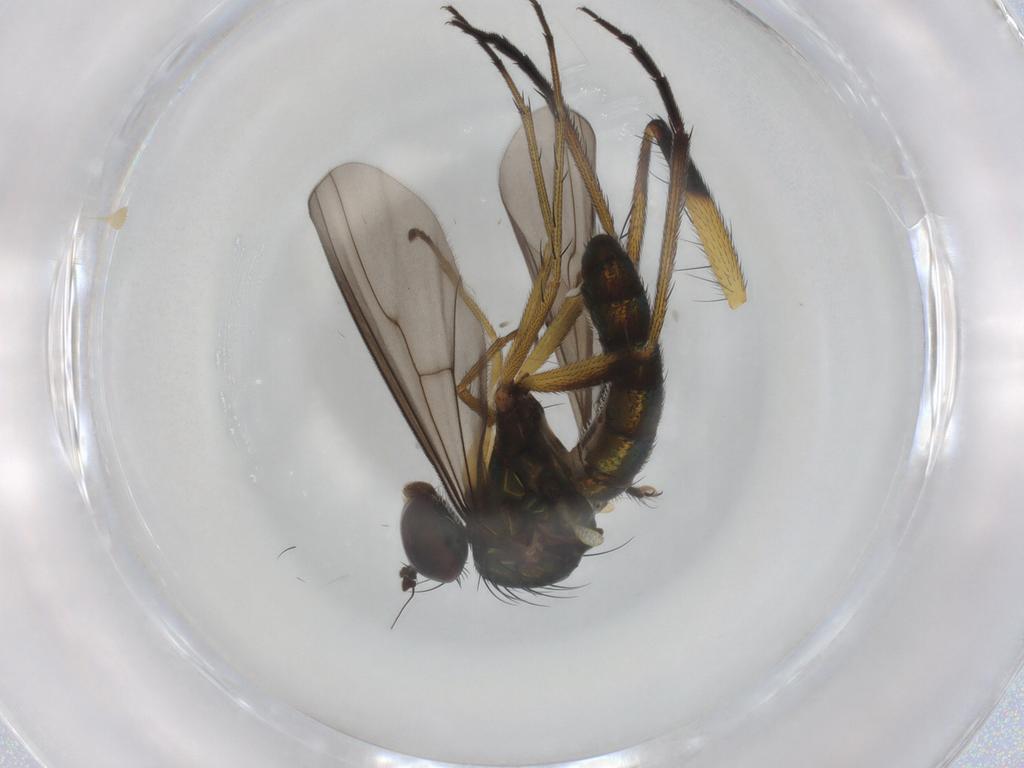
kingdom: Animalia
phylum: Arthropoda
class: Insecta
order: Diptera
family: Dolichopodidae
